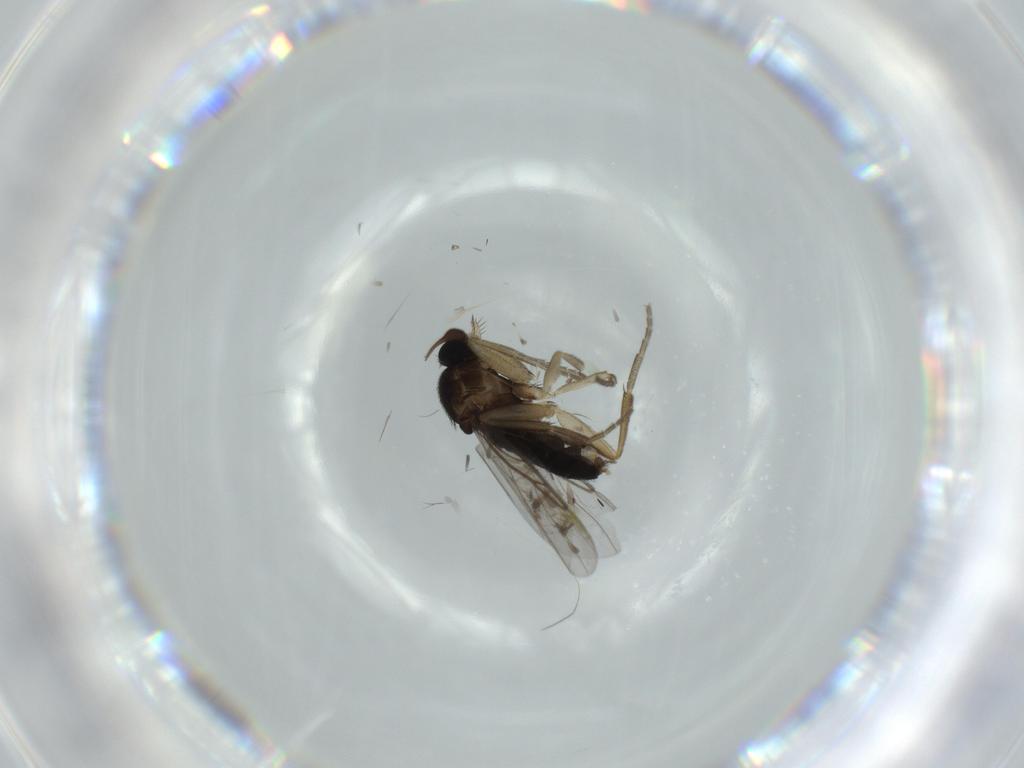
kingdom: Animalia
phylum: Arthropoda
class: Insecta
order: Diptera
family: Ceratopogonidae
